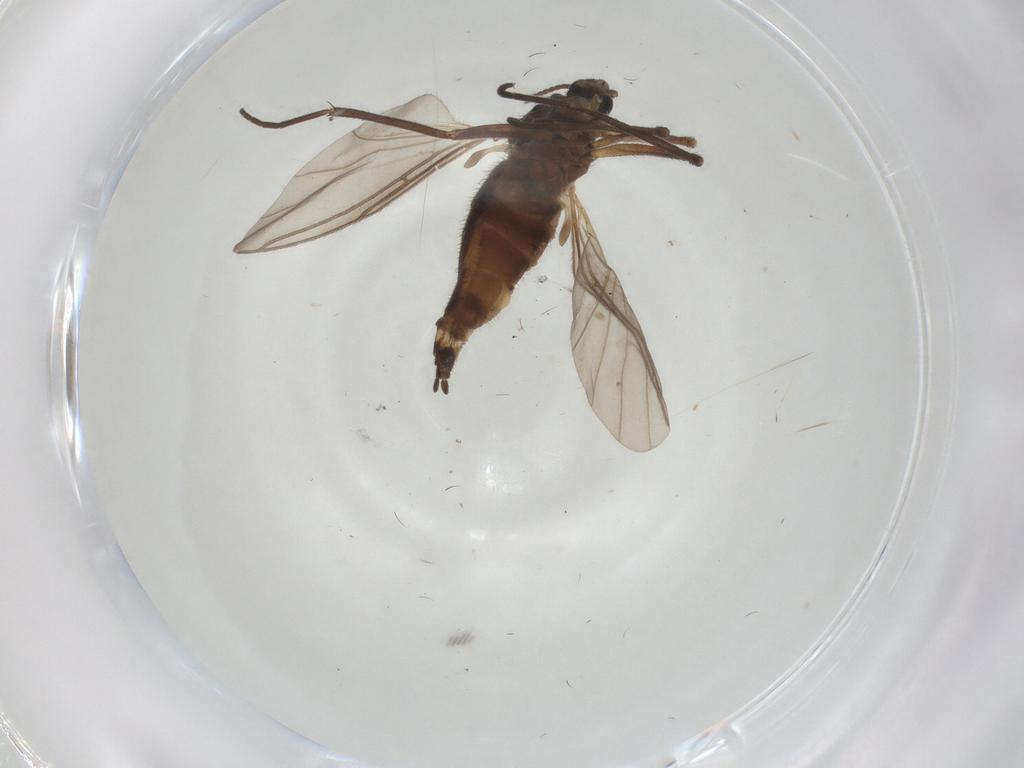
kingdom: Animalia
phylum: Arthropoda
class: Insecta
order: Diptera
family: Sciaridae
